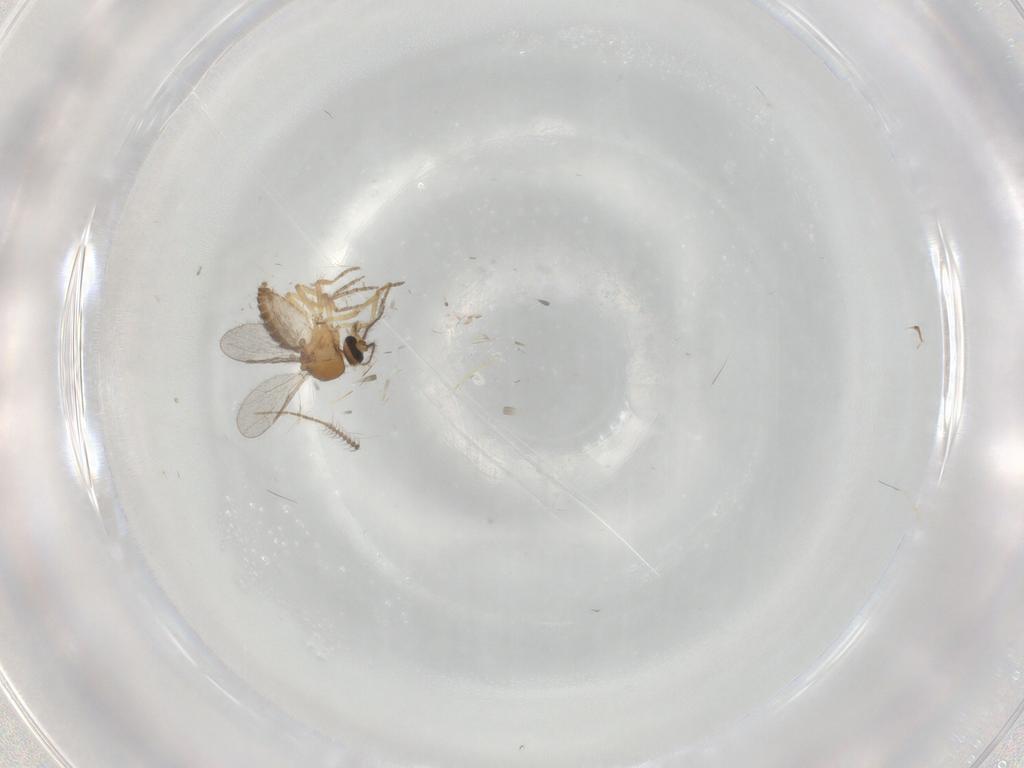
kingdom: Animalia
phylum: Arthropoda
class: Insecta
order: Diptera
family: Ceratopogonidae
